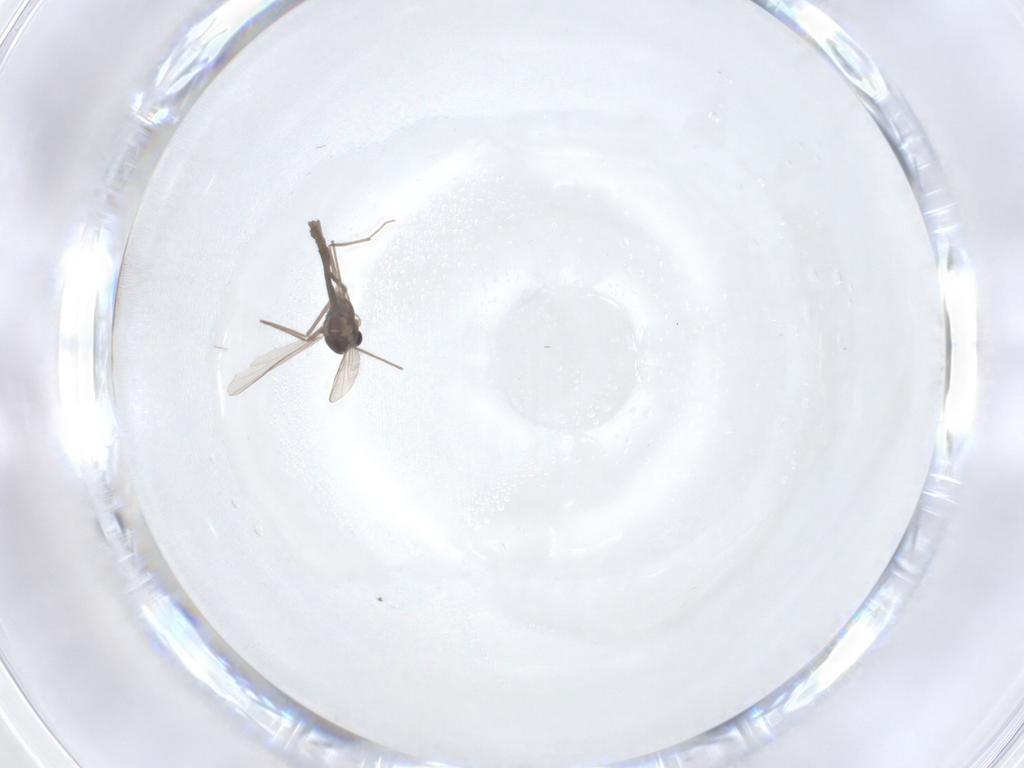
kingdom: Animalia
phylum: Arthropoda
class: Insecta
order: Diptera
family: Chironomidae
